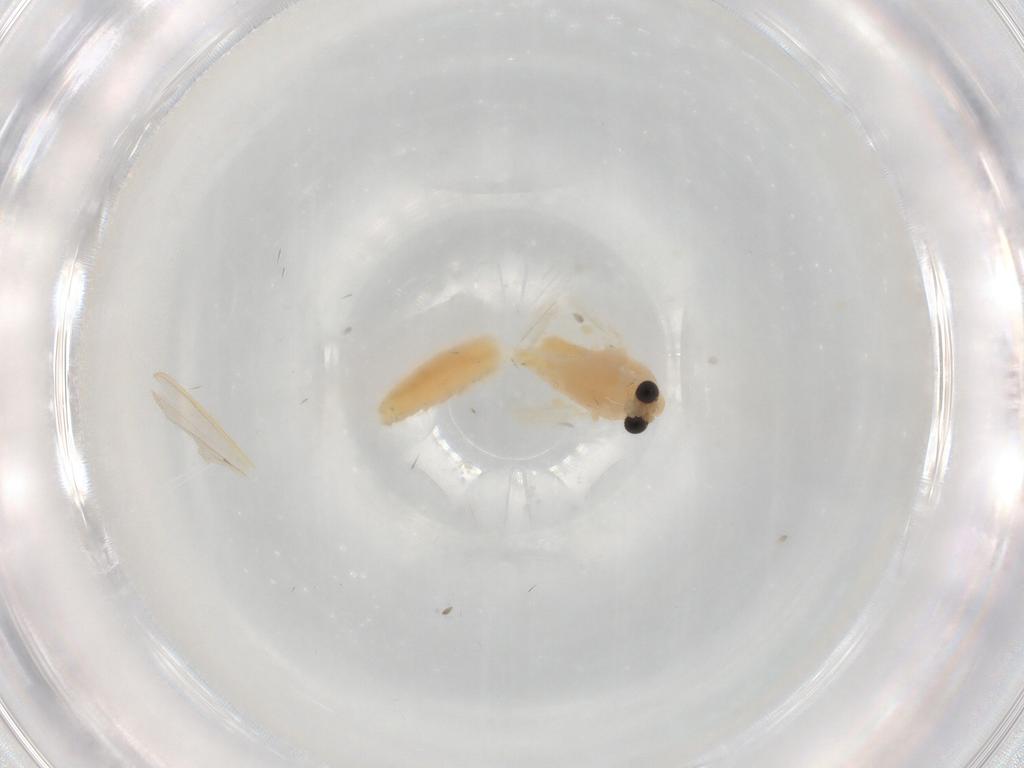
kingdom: Animalia
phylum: Arthropoda
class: Insecta
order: Diptera
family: Chironomidae
